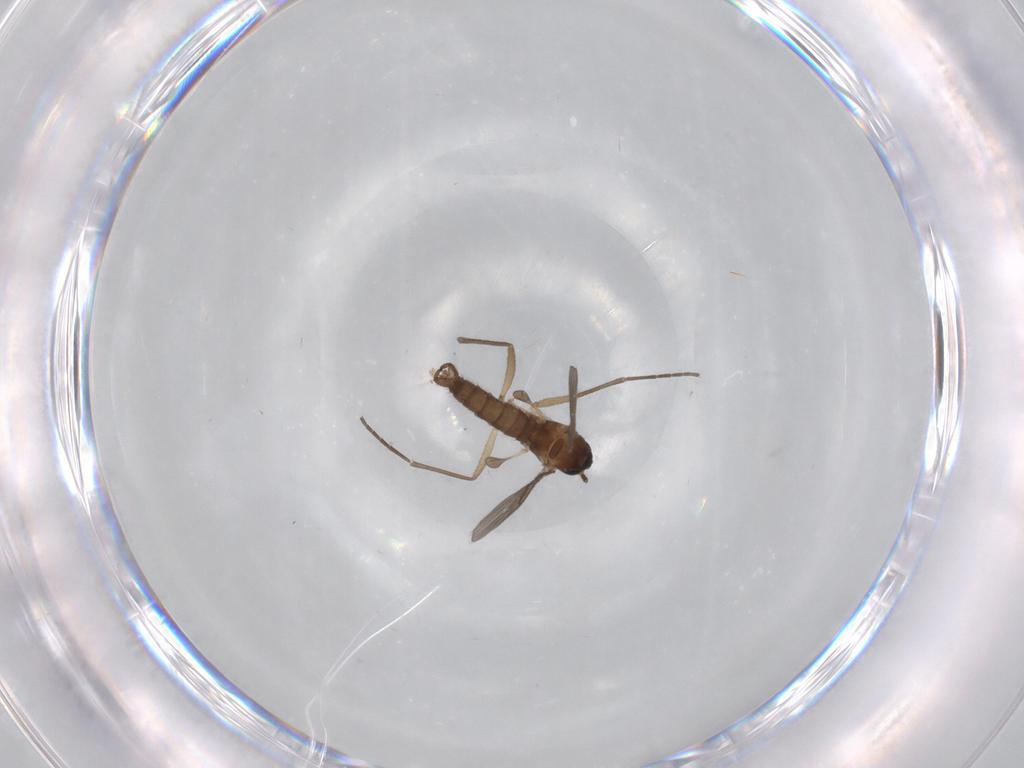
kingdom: Animalia
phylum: Arthropoda
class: Insecta
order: Diptera
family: Sciaridae
